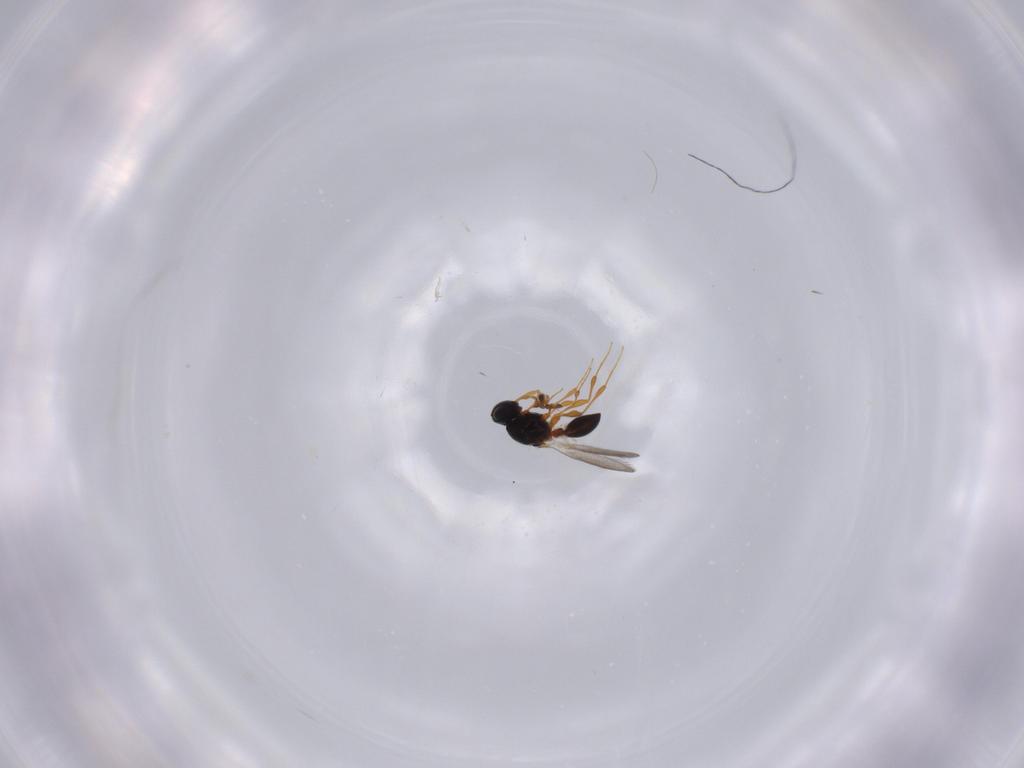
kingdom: Animalia
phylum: Arthropoda
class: Insecta
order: Hymenoptera
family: Platygastridae
